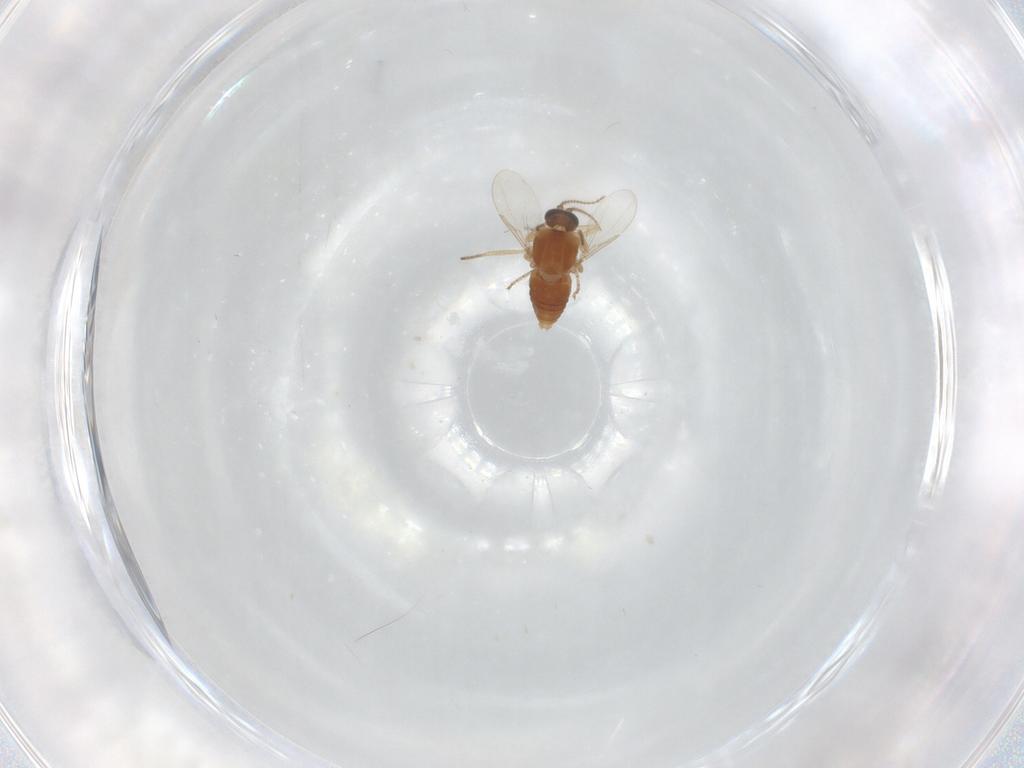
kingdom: Animalia
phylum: Arthropoda
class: Insecta
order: Diptera
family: Ceratopogonidae
